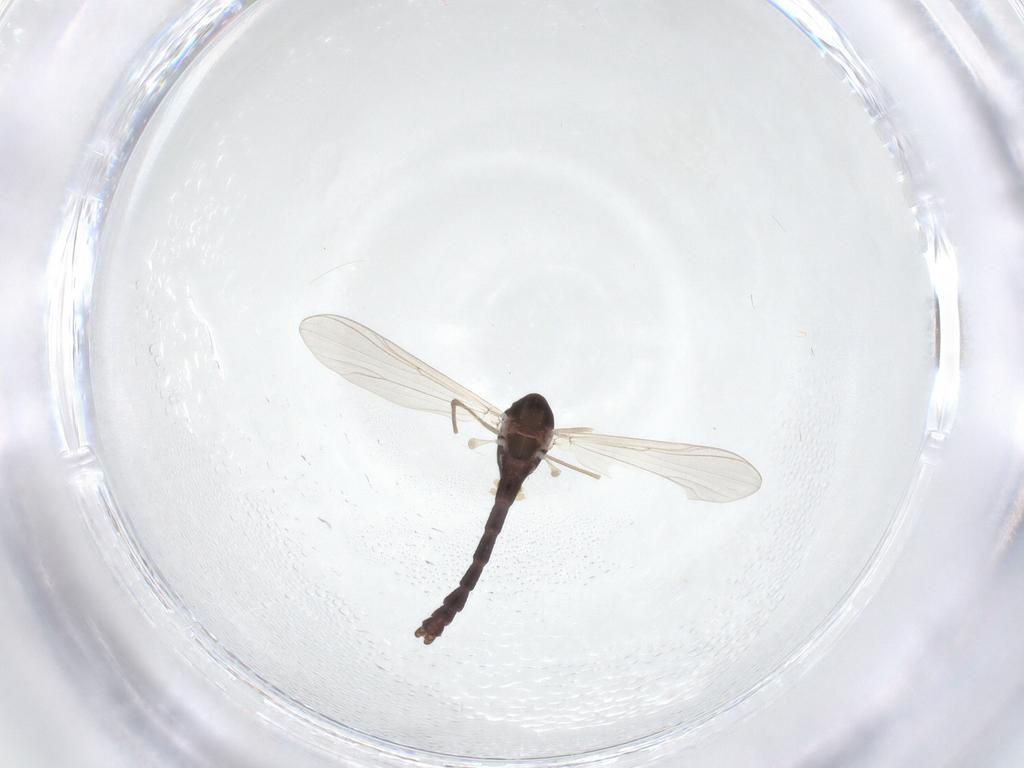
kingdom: Animalia
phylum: Arthropoda
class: Insecta
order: Diptera
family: Chironomidae
